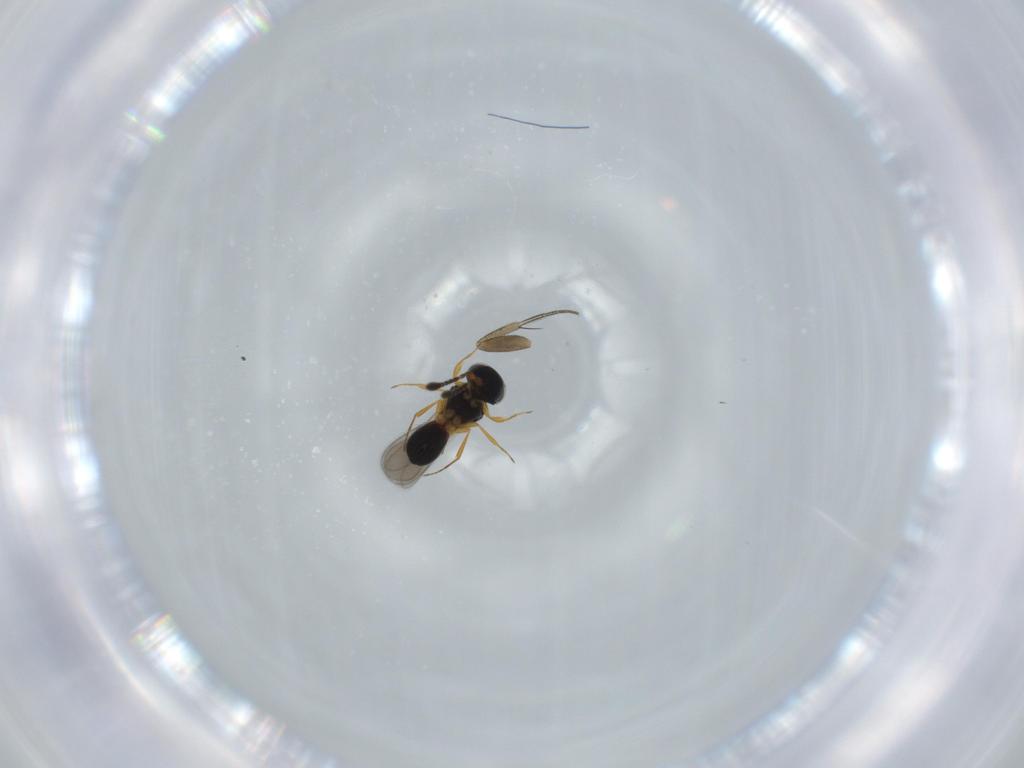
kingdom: Animalia
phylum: Arthropoda
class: Insecta
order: Hymenoptera
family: Scelionidae
